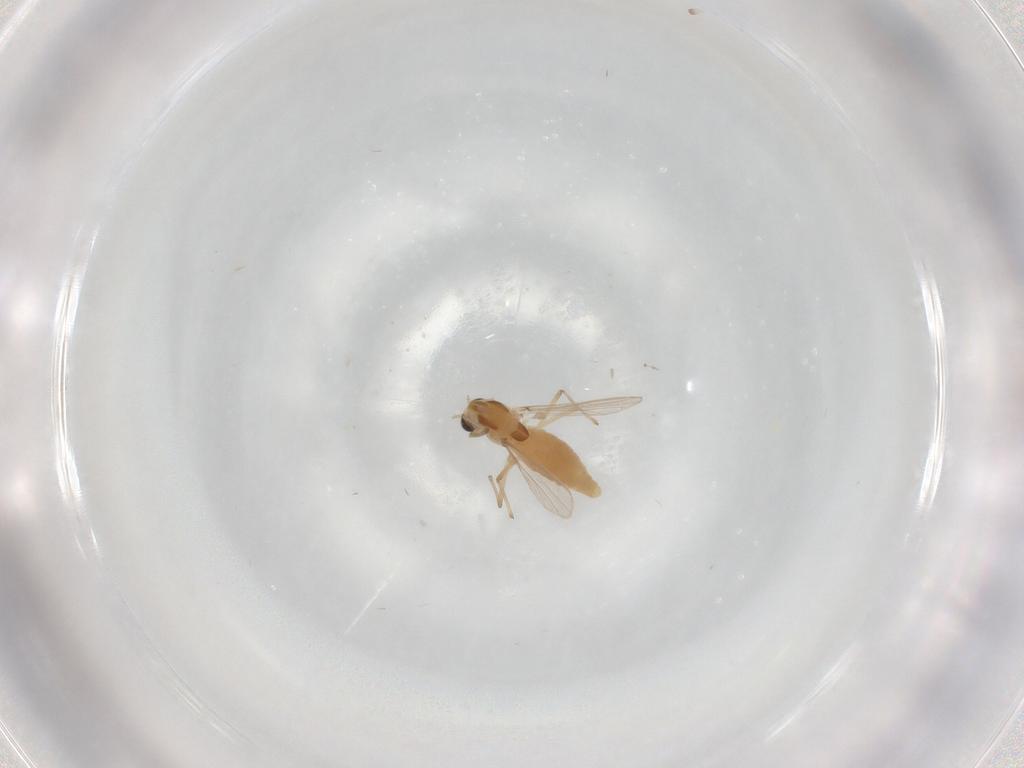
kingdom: Animalia
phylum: Arthropoda
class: Insecta
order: Diptera
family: Chironomidae
